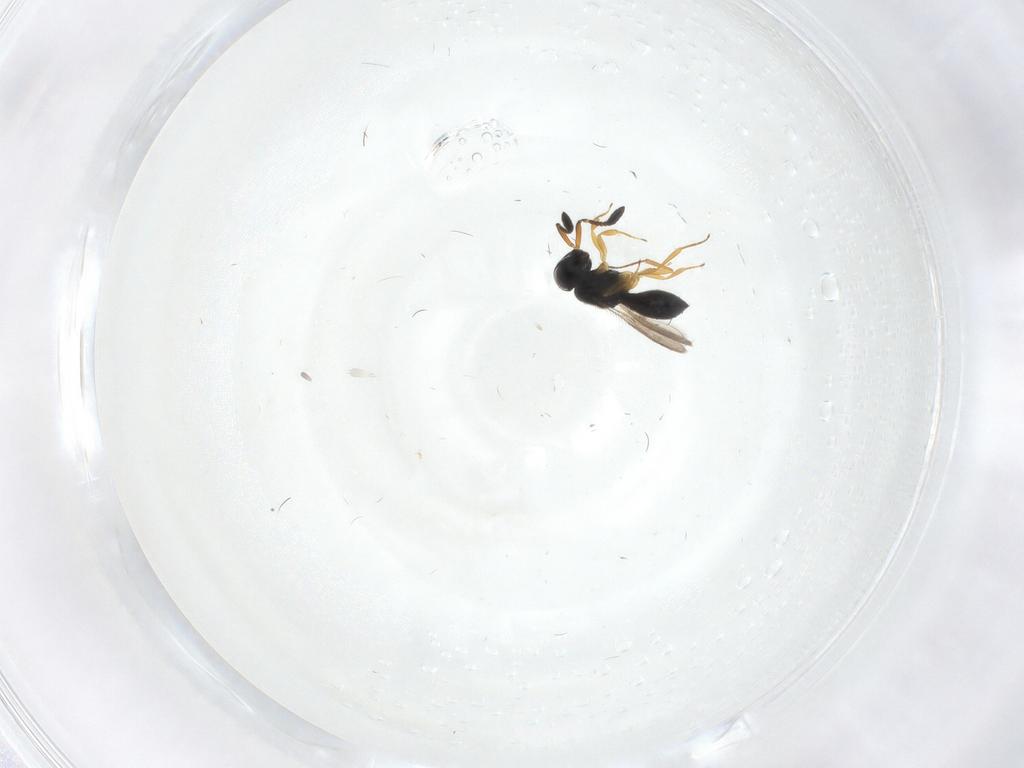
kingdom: Animalia
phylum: Arthropoda
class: Insecta
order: Hymenoptera
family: Scelionidae
